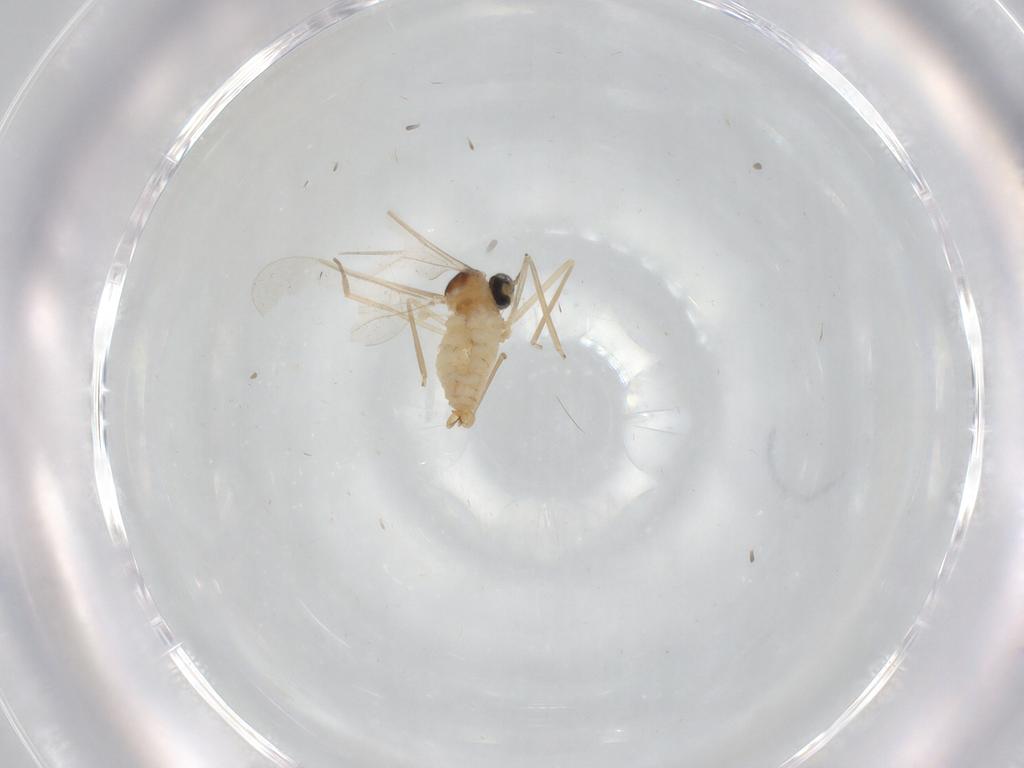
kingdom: Animalia
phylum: Arthropoda
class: Insecta
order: Diptera
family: Cecidomyiidae
